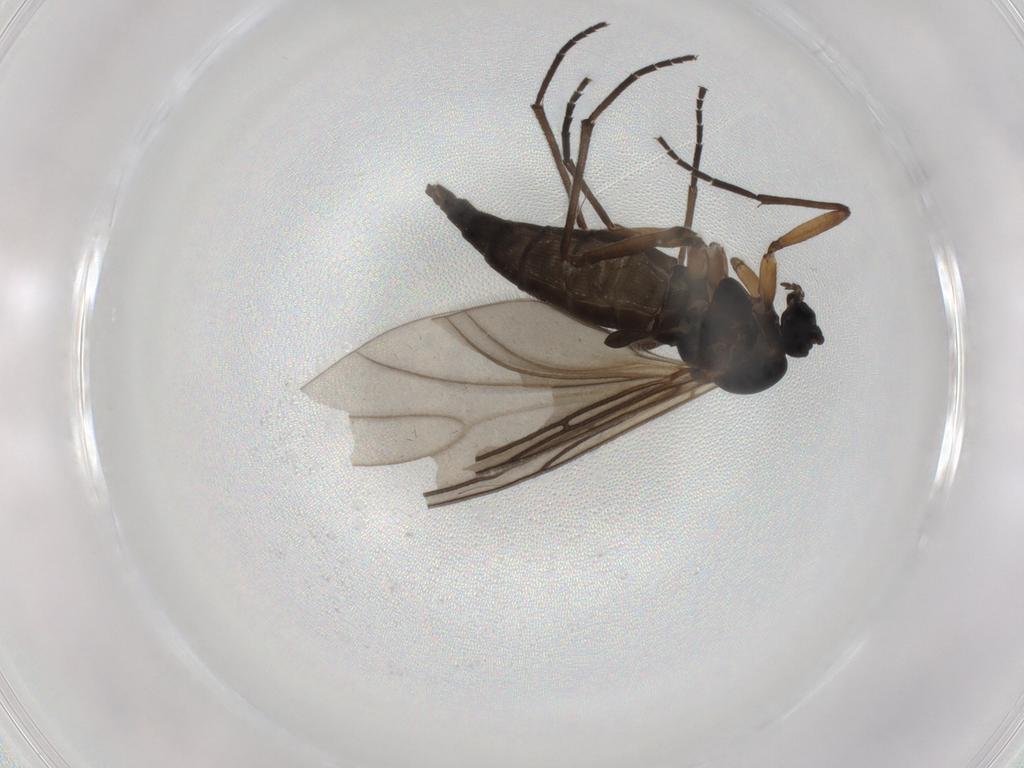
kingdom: Animalia
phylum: Arthropoda
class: Insecta
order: Diptera
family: Sciaridae
